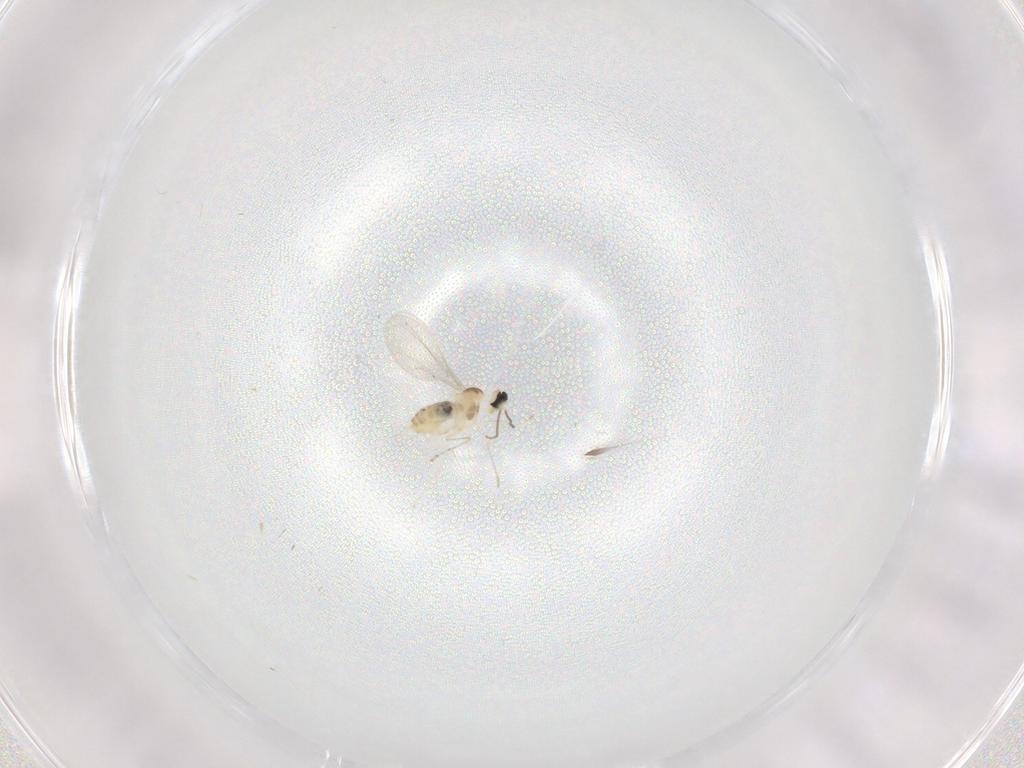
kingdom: Animalia
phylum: Arthropoda
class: Insecta
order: Diptera
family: Cecidomyiidae
